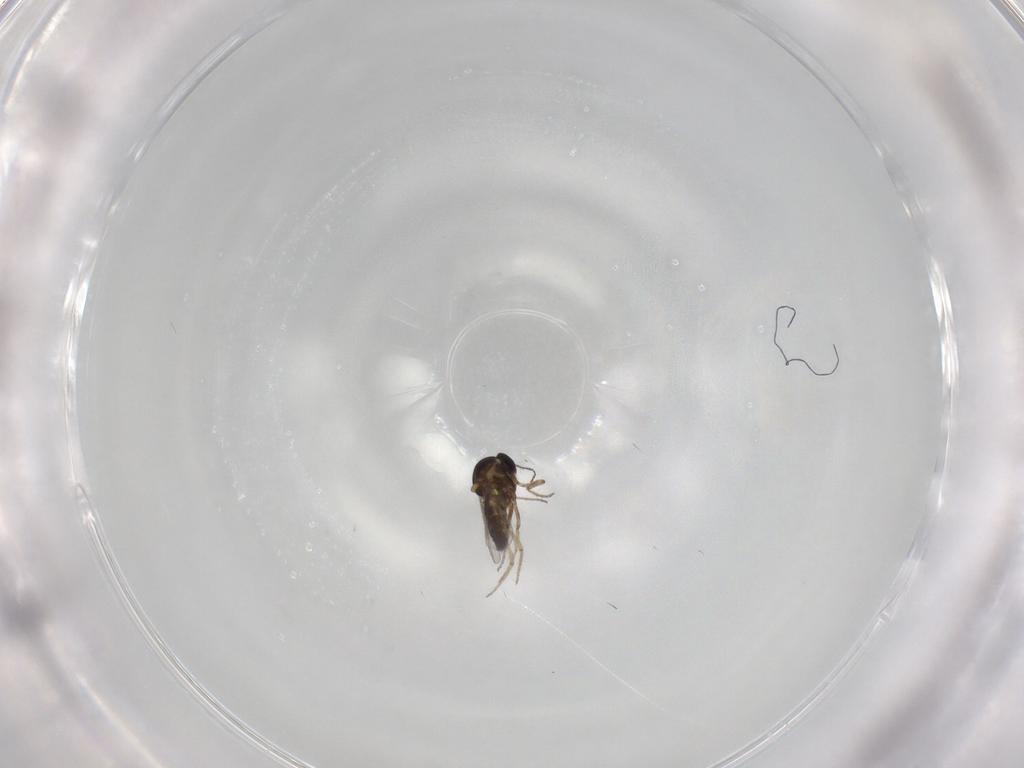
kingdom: Animalia
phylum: Arthropoda
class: Insecta
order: Diptera
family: Ceratopogonidae
